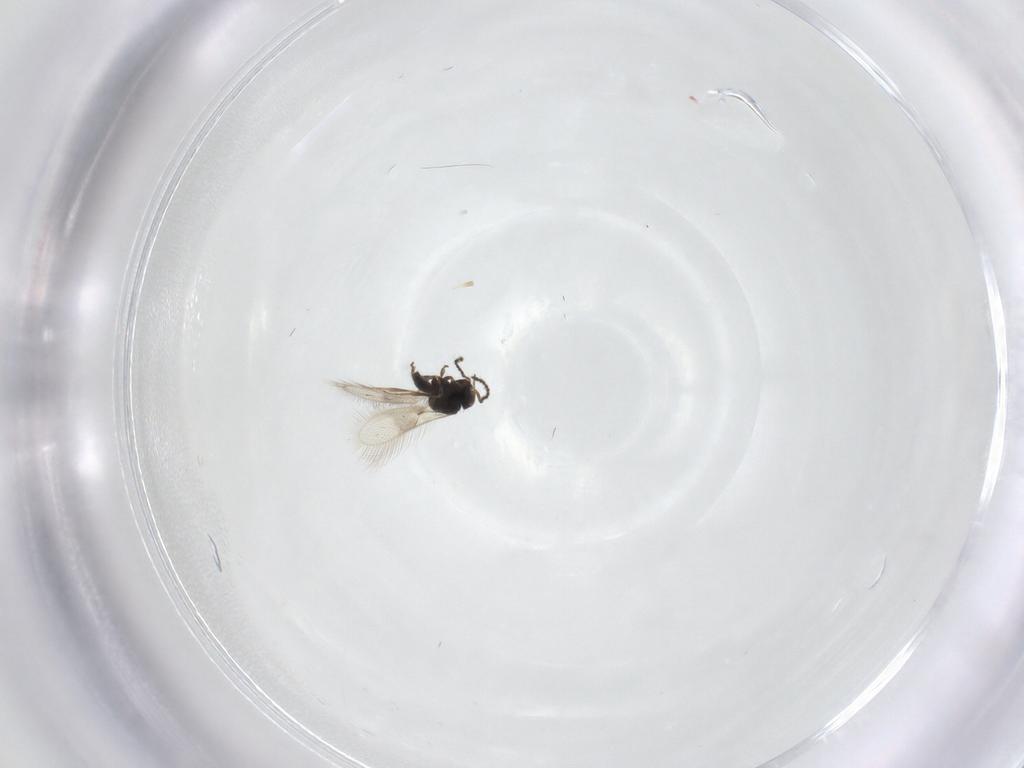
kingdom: Animalia
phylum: Arthropoda
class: Insecta
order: Hymenoptera
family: Scelionidae
